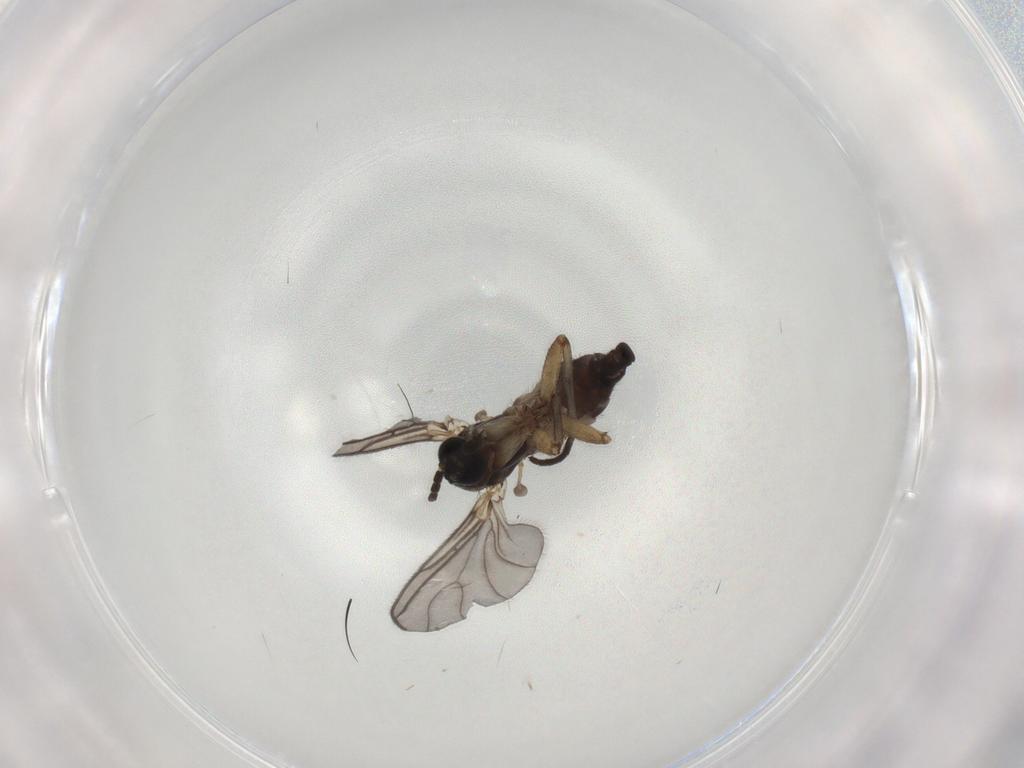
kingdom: Animalia
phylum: Arthropoda
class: Insecta
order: Diptera
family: Sciaridae
